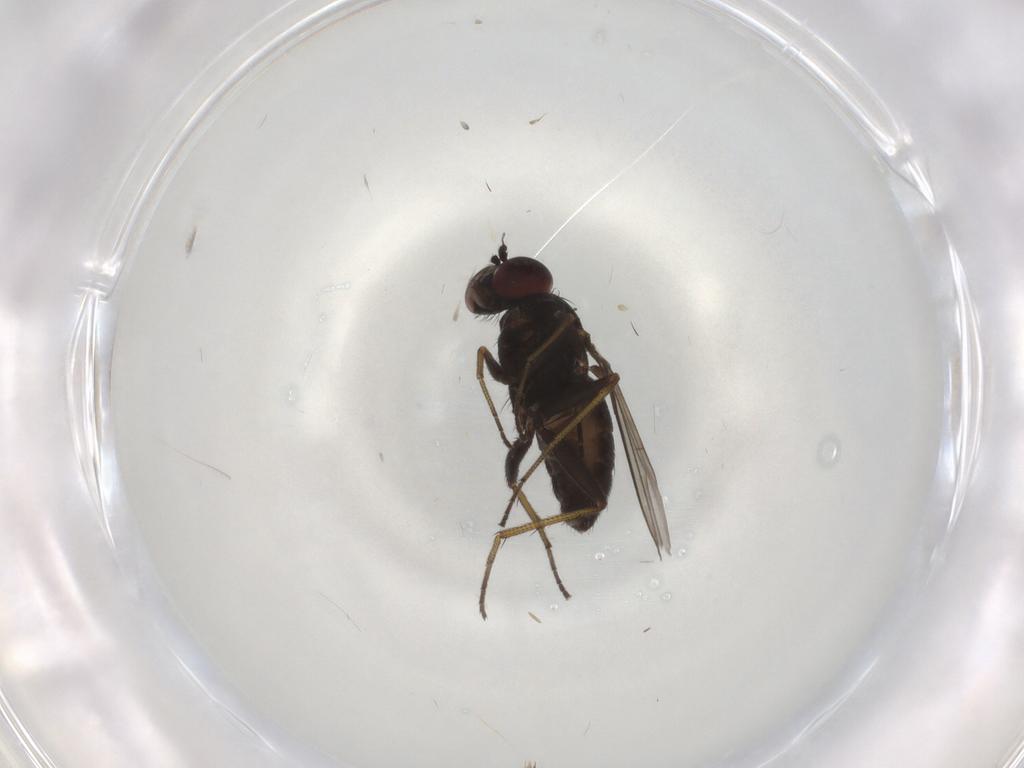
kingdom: Animalia
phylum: Arthropoda
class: Insecta
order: Diptera
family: Dolichopodidae
